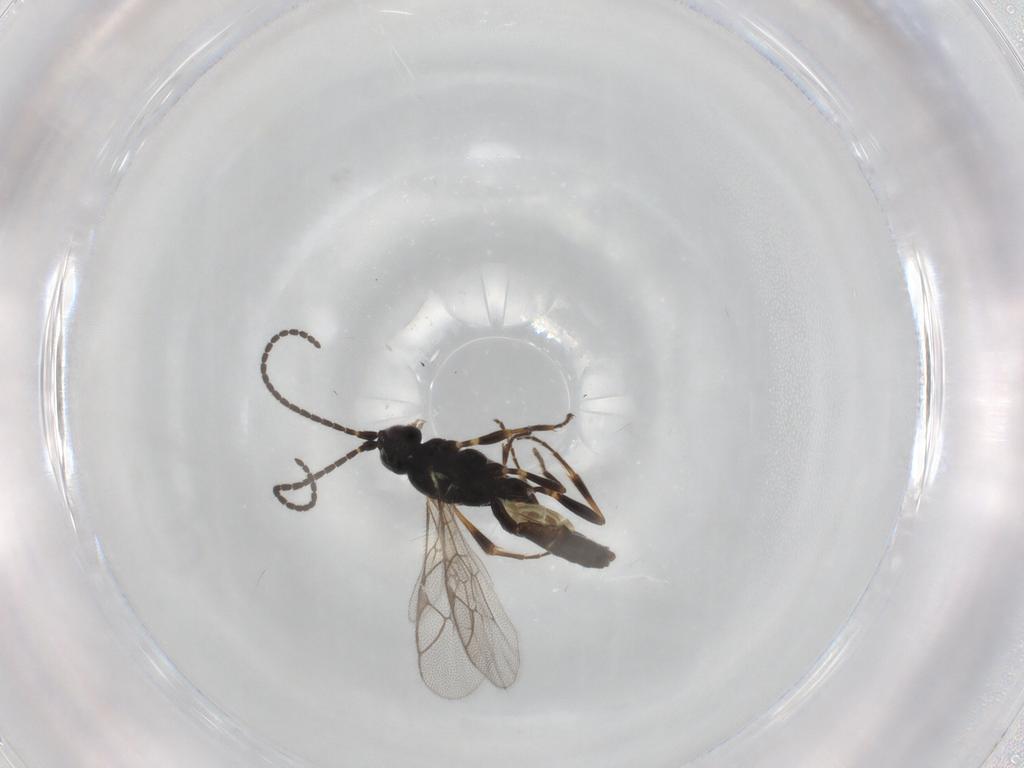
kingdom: Animalia
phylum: Arthropoda
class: Insecta
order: Hymenoptera
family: Ichneumonidae
